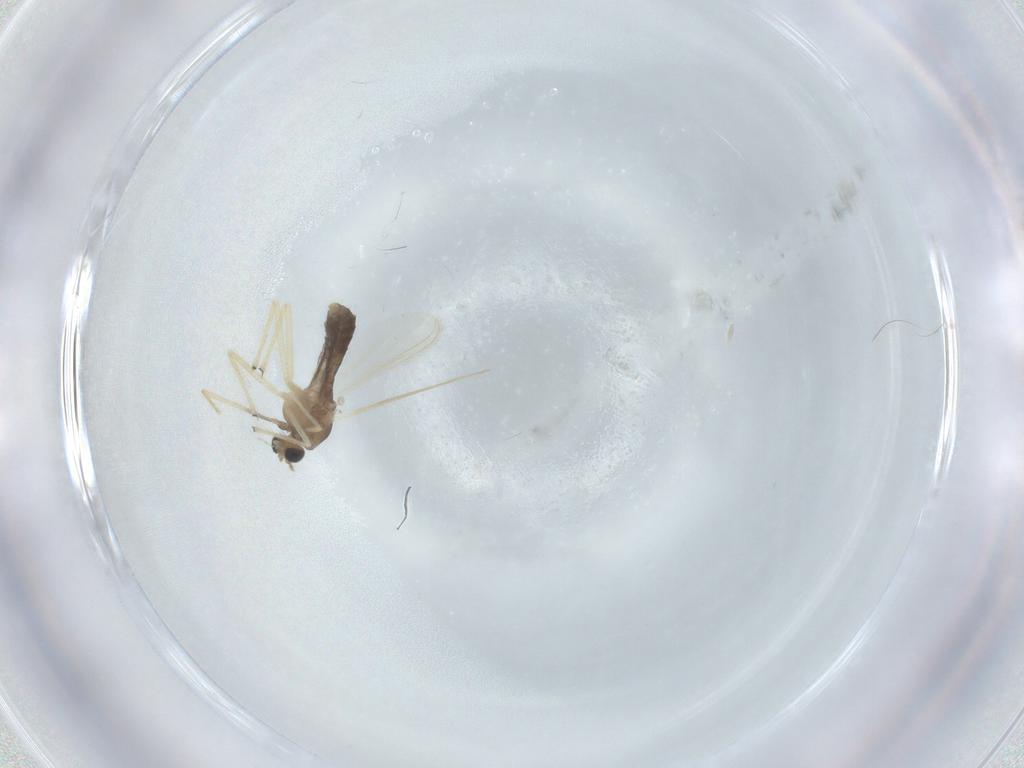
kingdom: Animalia
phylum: Arthropoda
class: Insecta
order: Diptera
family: Chironomidae
